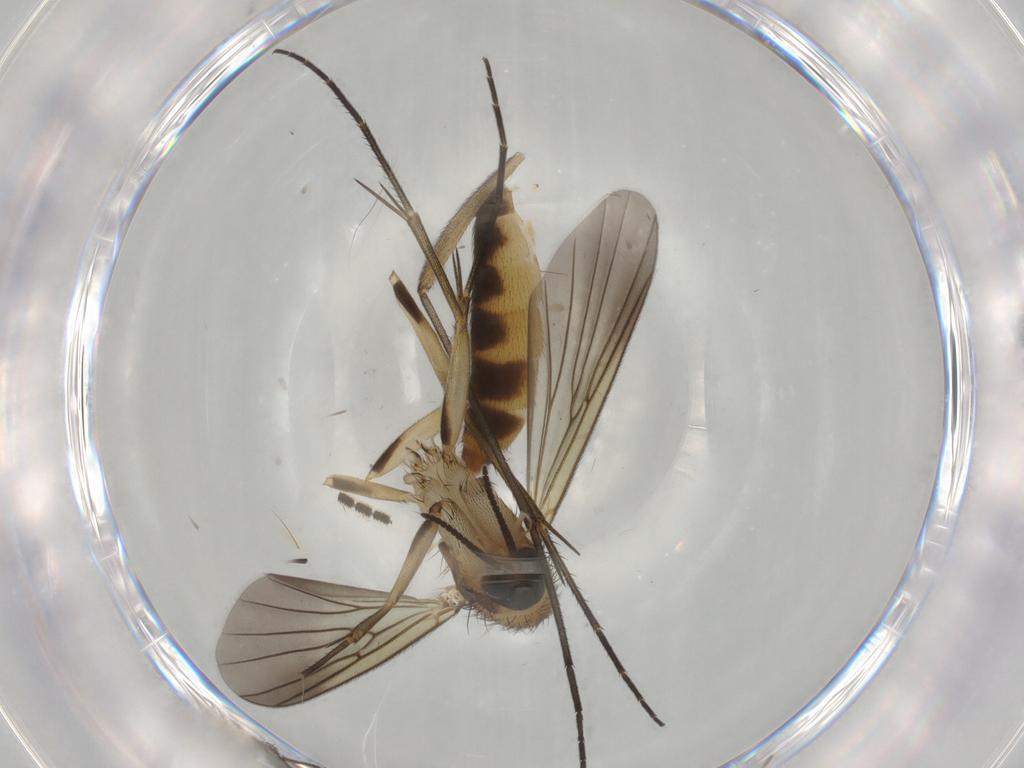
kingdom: Animalia
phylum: Arthropoda
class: Insecta
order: Diptera
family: Mycetophilidae
